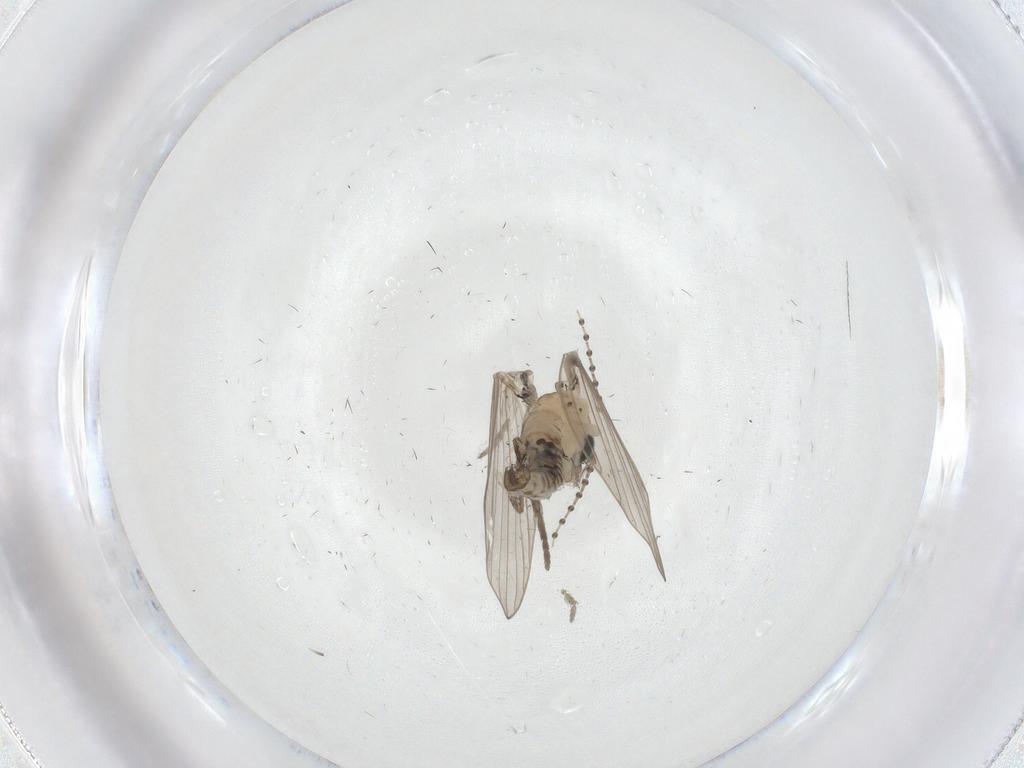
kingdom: Animalia
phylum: Arthropoda
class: Insecta
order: Diptera
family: Psychodidae
